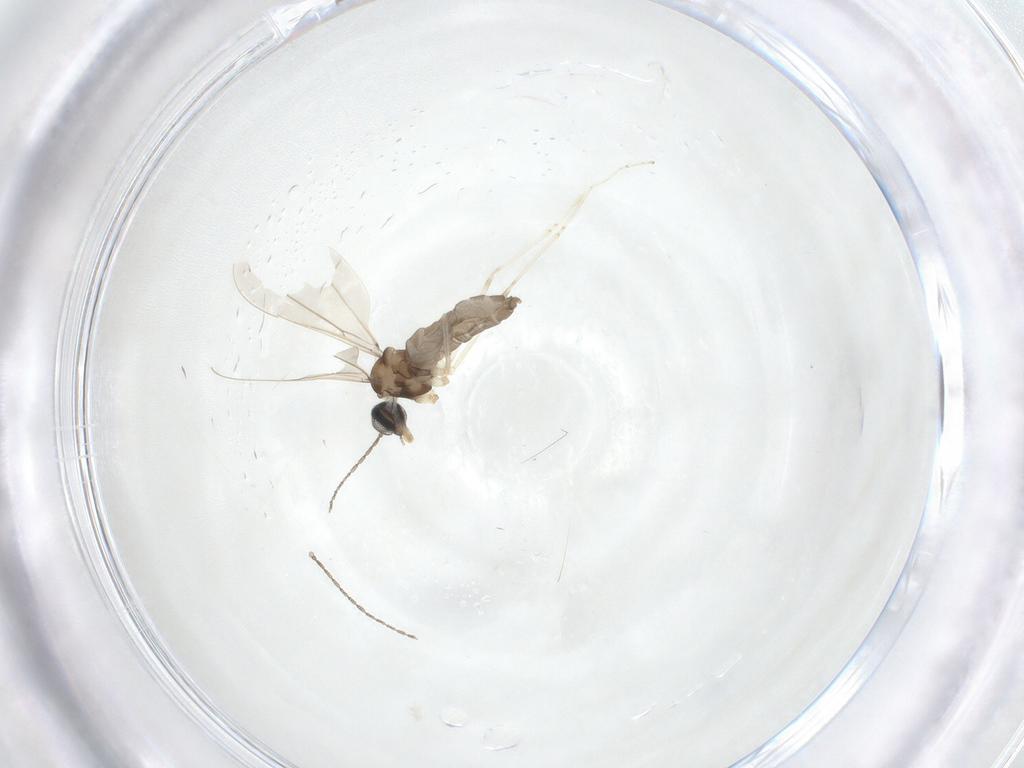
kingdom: Animalia
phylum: Arthropoda
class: Insecta
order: Diptera
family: Cecidomyiidae
